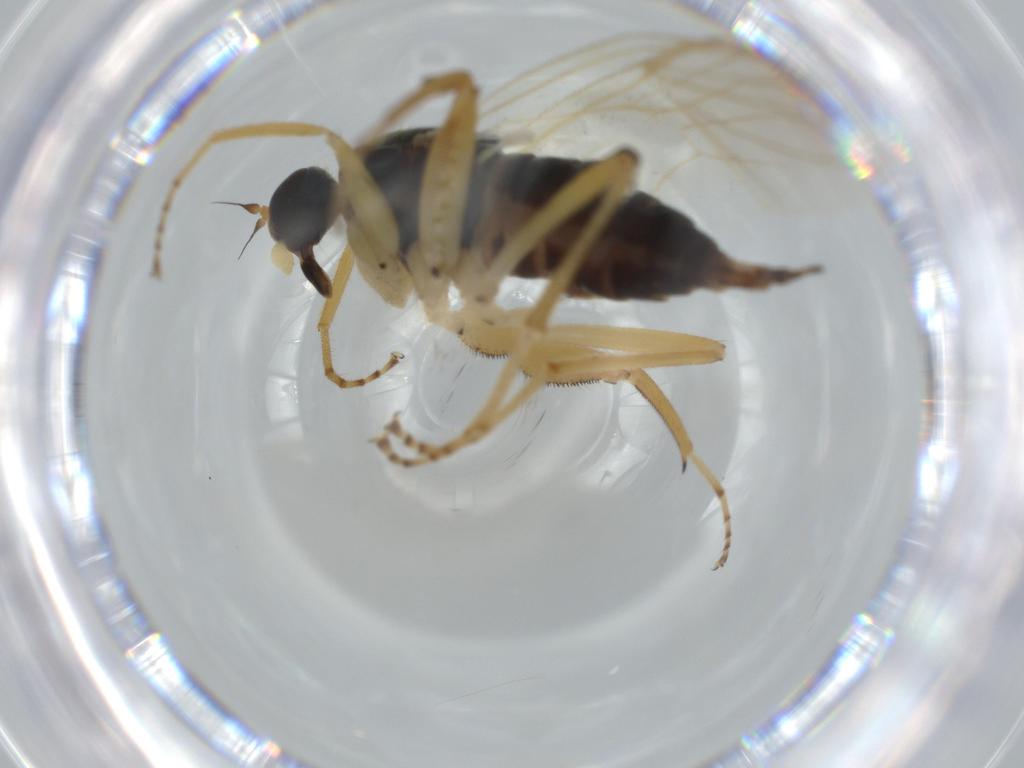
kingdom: Animalia
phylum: Arthropoda
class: Insecta
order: Diptera
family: Hybotidae
